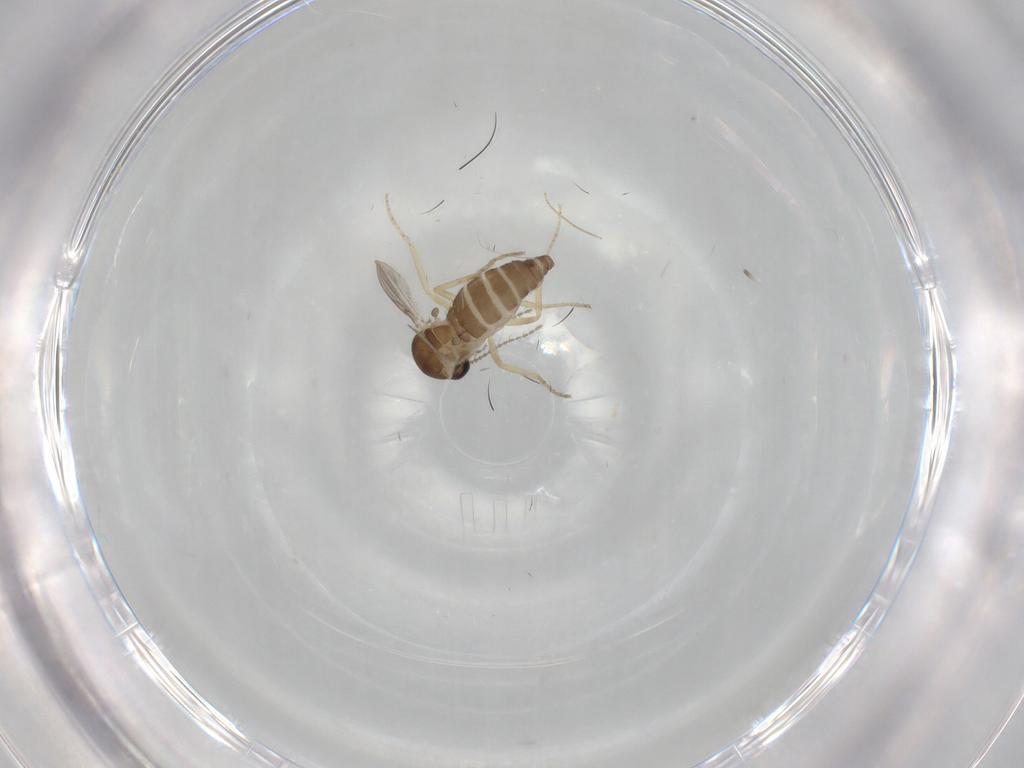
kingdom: Animalia
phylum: Arthropoda
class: Insecta
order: Diptera
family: Ceratopogonidae
